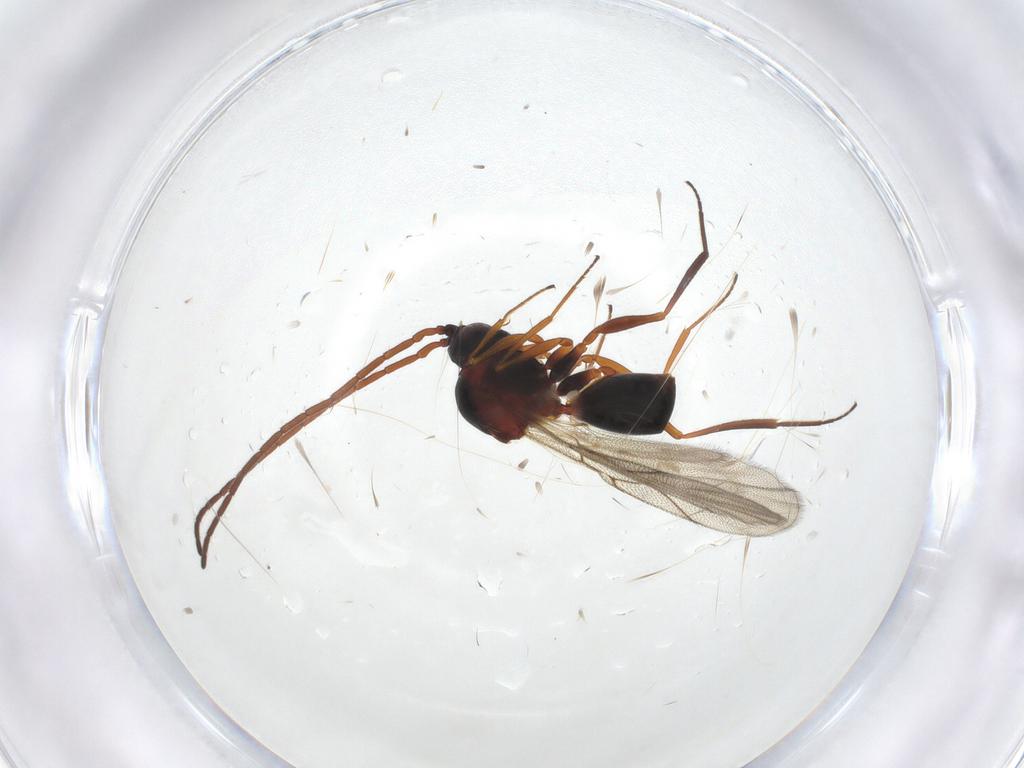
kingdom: Animalia
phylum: Arthropoda
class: Insecta
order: Hymenoptera
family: Figitidae
